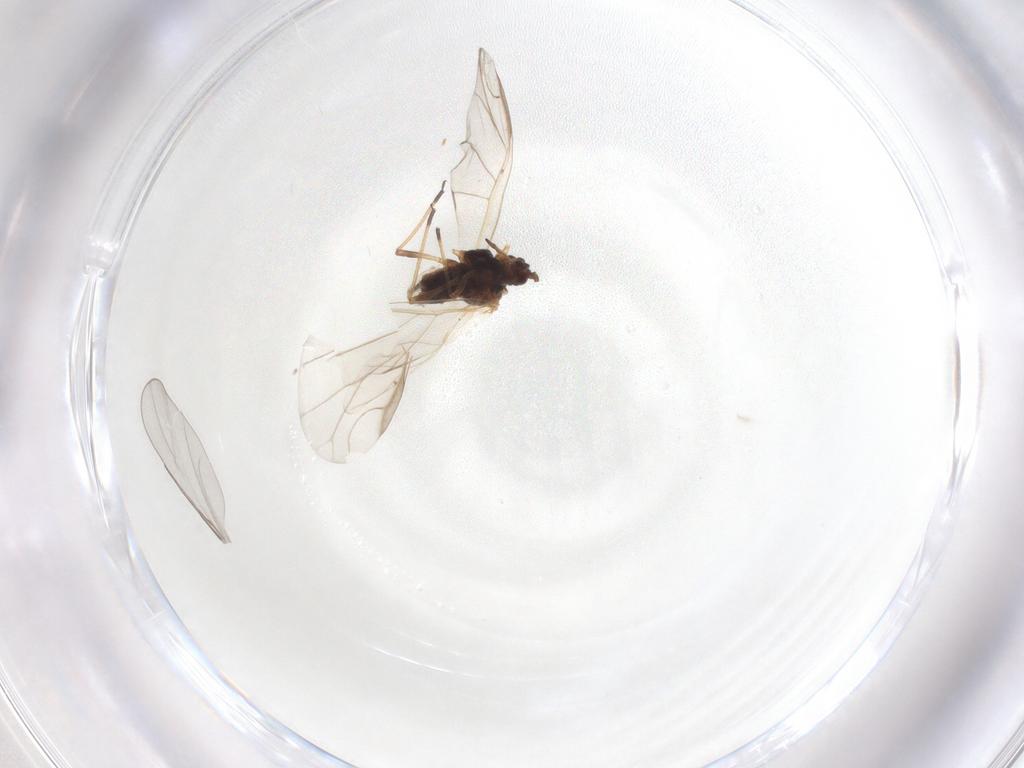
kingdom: Animalia
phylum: Arthropoda
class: Insecta
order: Hemiptera
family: Aphididae
